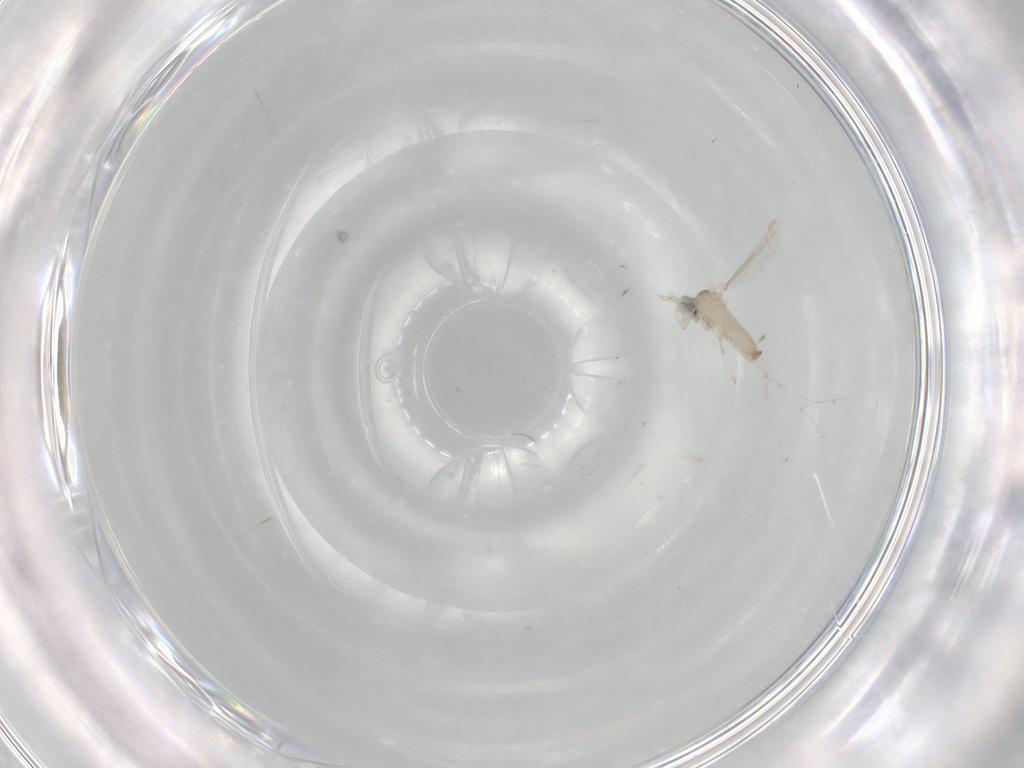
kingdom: Animalia
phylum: Arthropoda
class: Insecta
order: Diptera
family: Cecidomyiidae
